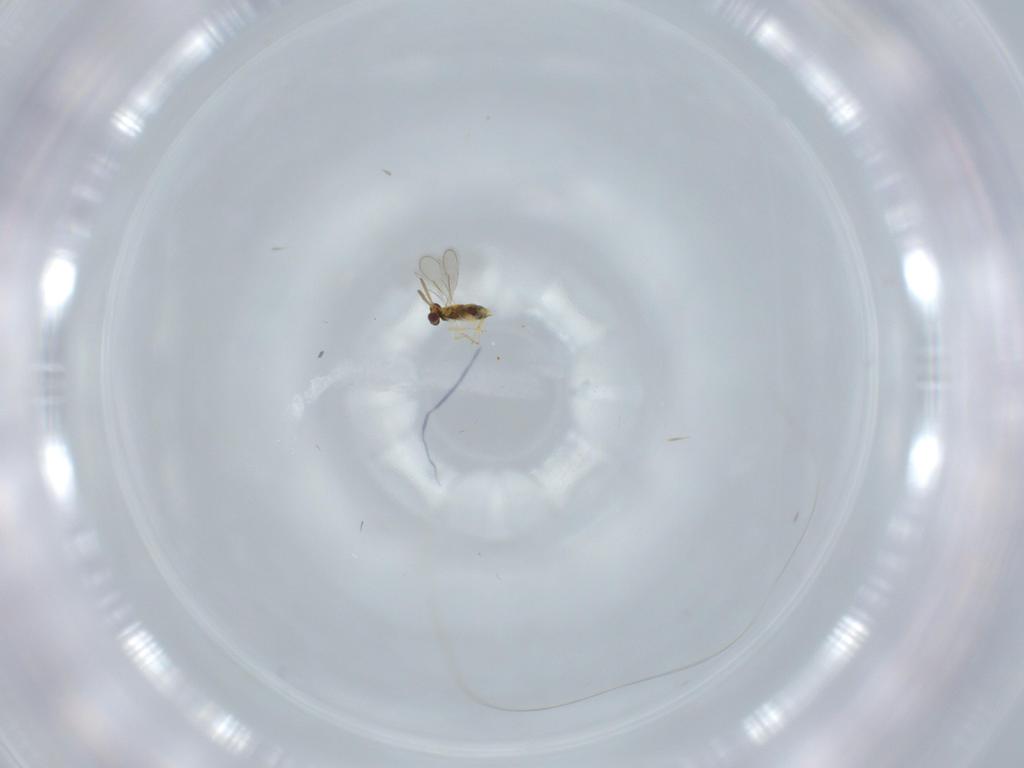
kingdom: Animalia
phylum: Arthropoda
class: Insecta
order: Hymenoptera
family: Aphelinidae
